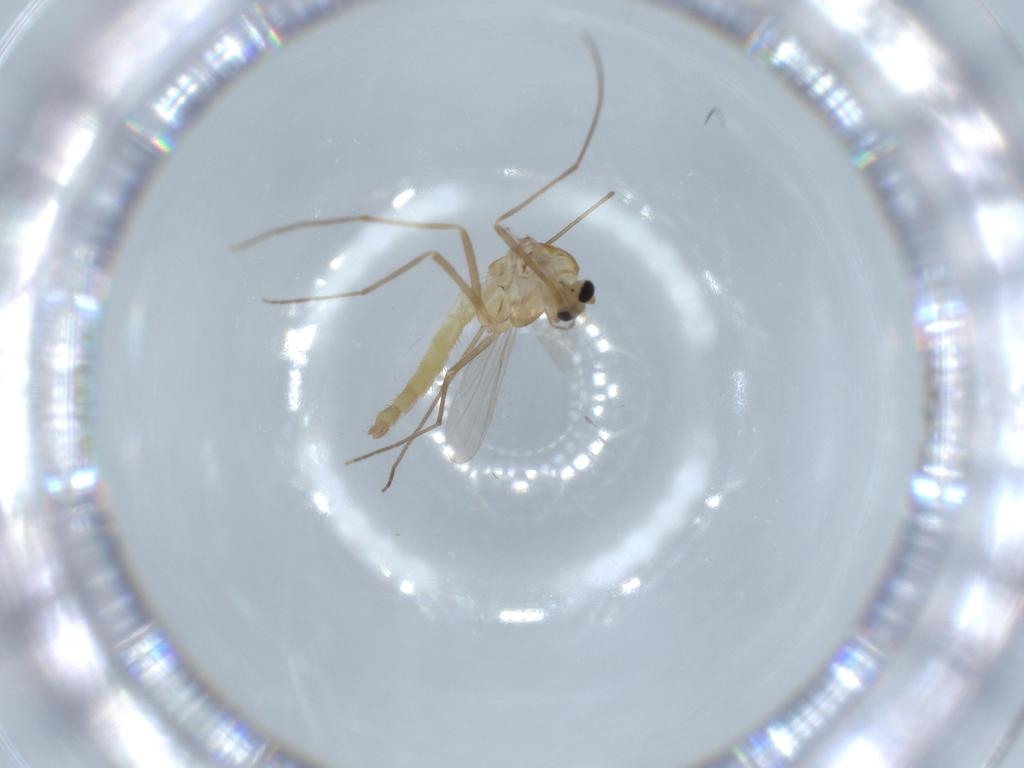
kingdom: Animalia
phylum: Arthropoda
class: Insecta
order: Diptera
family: Chironomidae
